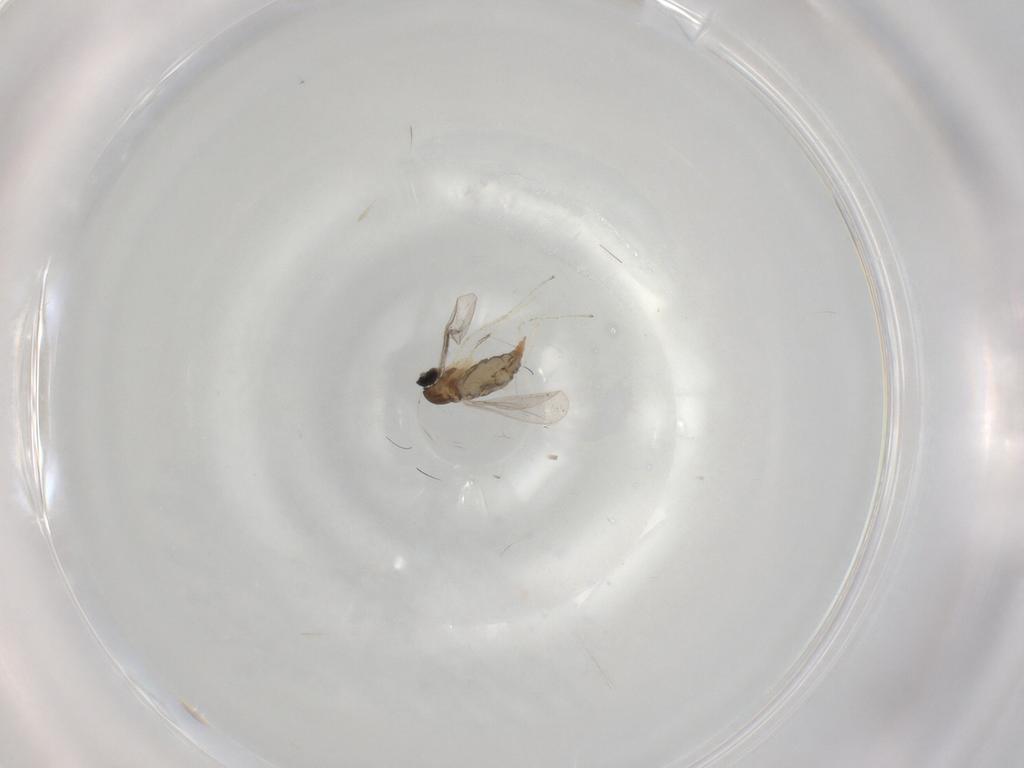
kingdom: Animalia
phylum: Arthropoda
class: Insecta
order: Diptera
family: Cecidomyiidae
